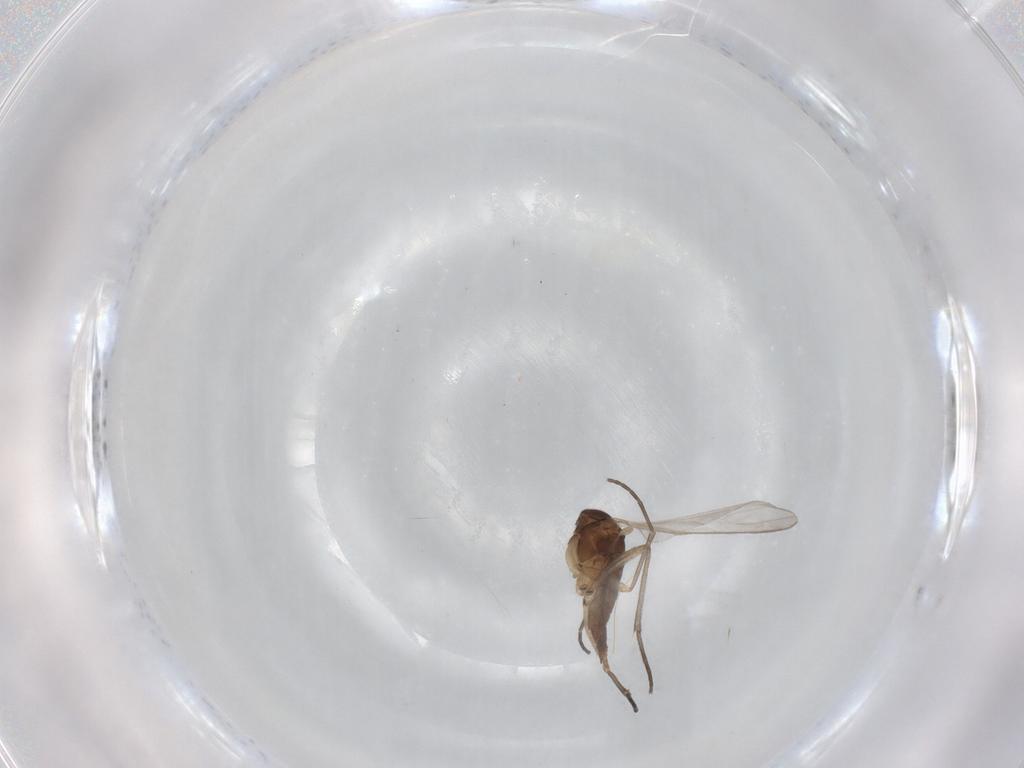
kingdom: Animalia
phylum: Arthropoda
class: Insecta
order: Diptera
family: Sciaridae
